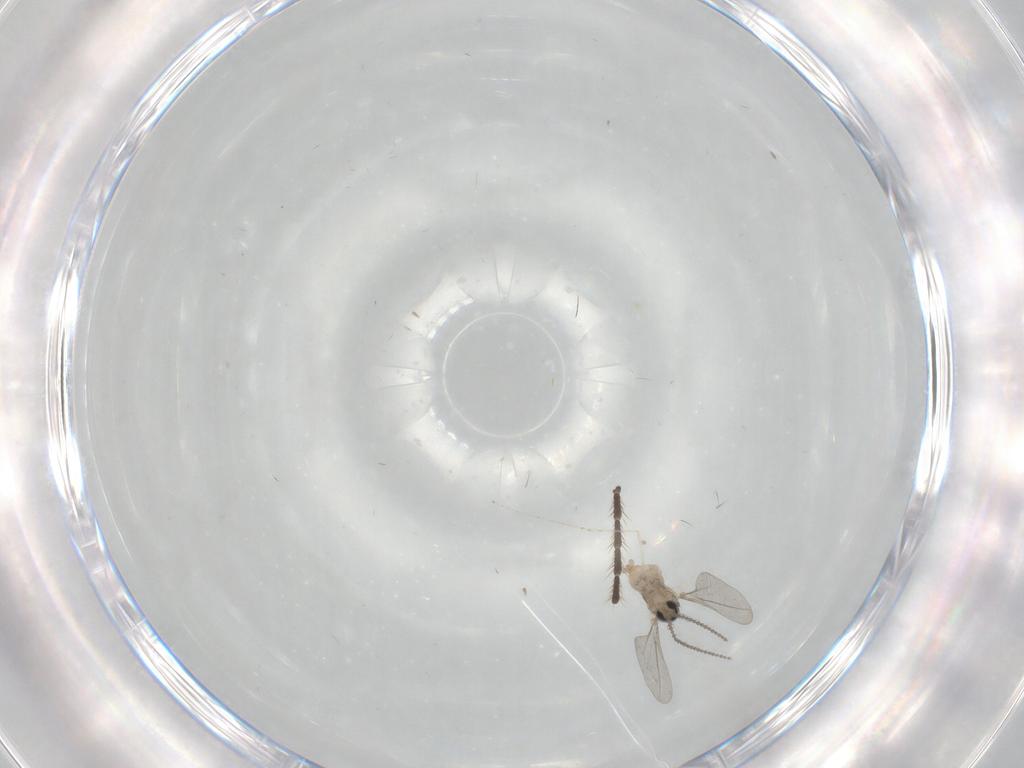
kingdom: Animalia
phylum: Arthropoda
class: Insecta
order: Diptera
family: Cecidomyiidae
